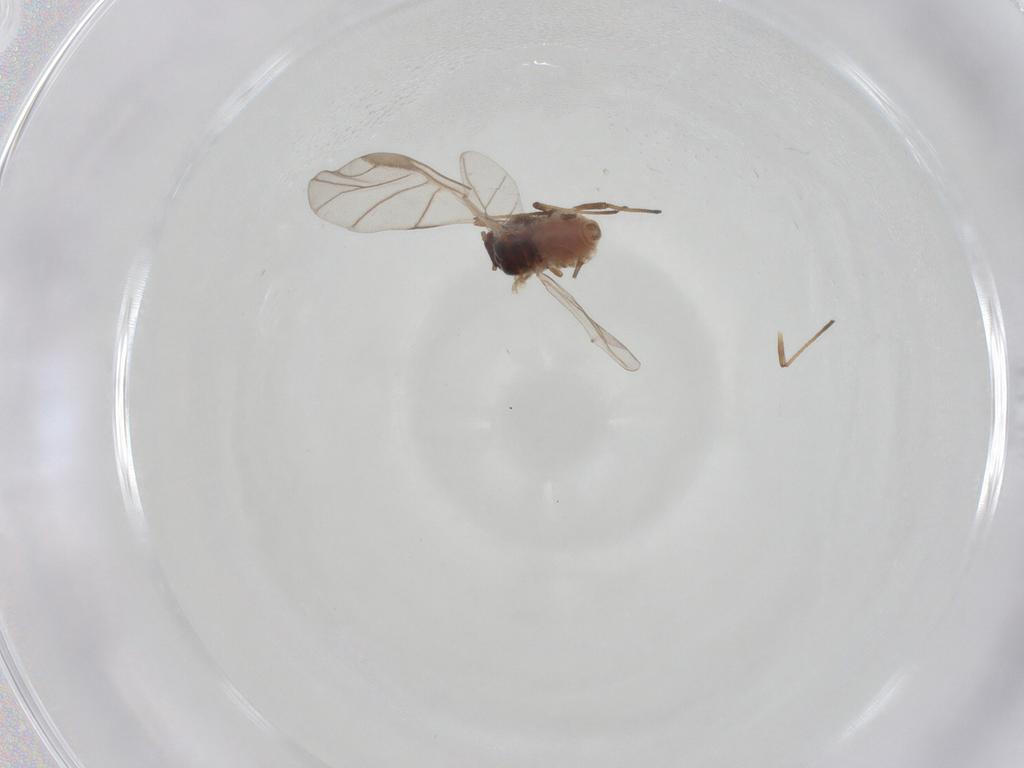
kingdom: Animalia
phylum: Arthropoda
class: Insecta
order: Hemiptera
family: Aphididae
